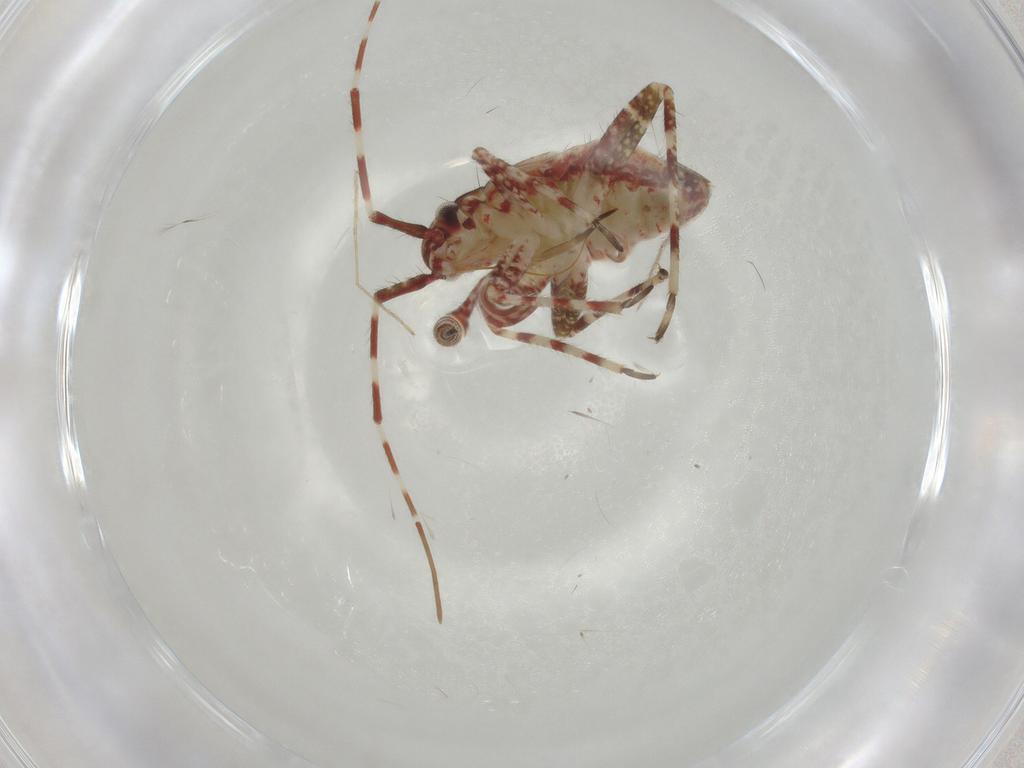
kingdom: Animalia
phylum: Arthropoda
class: Insecta
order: Hemiptera
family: Miridae
